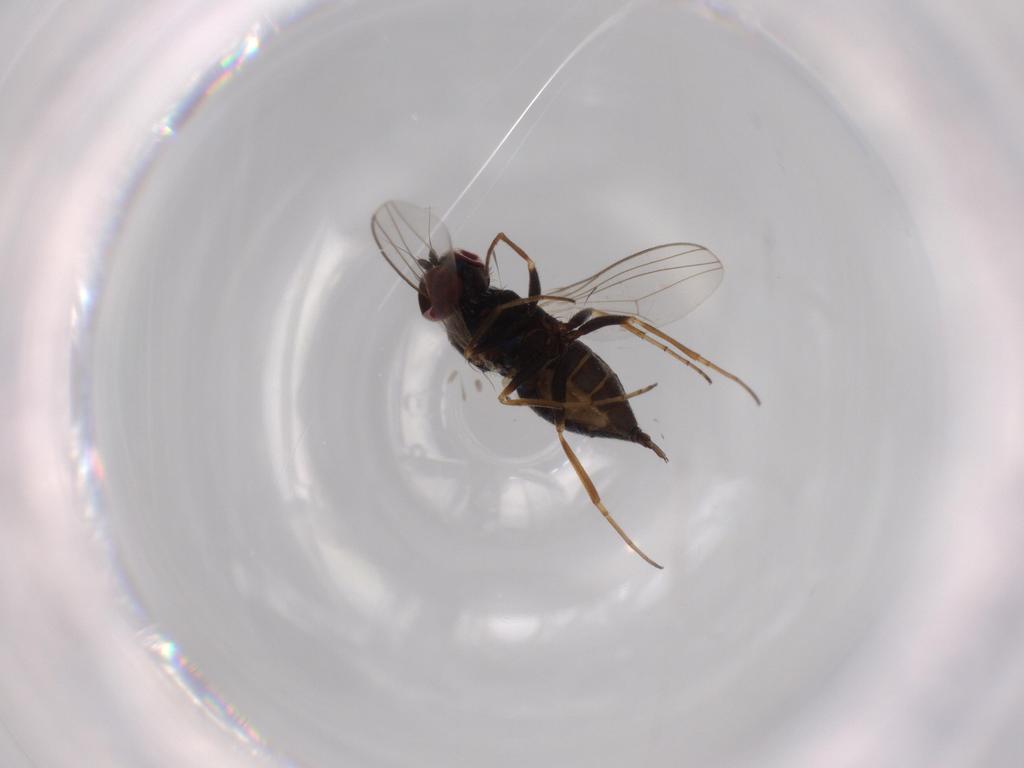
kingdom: Animalia
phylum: Arthropoda
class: Insecta
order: Diptera
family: Dolichopodidae
